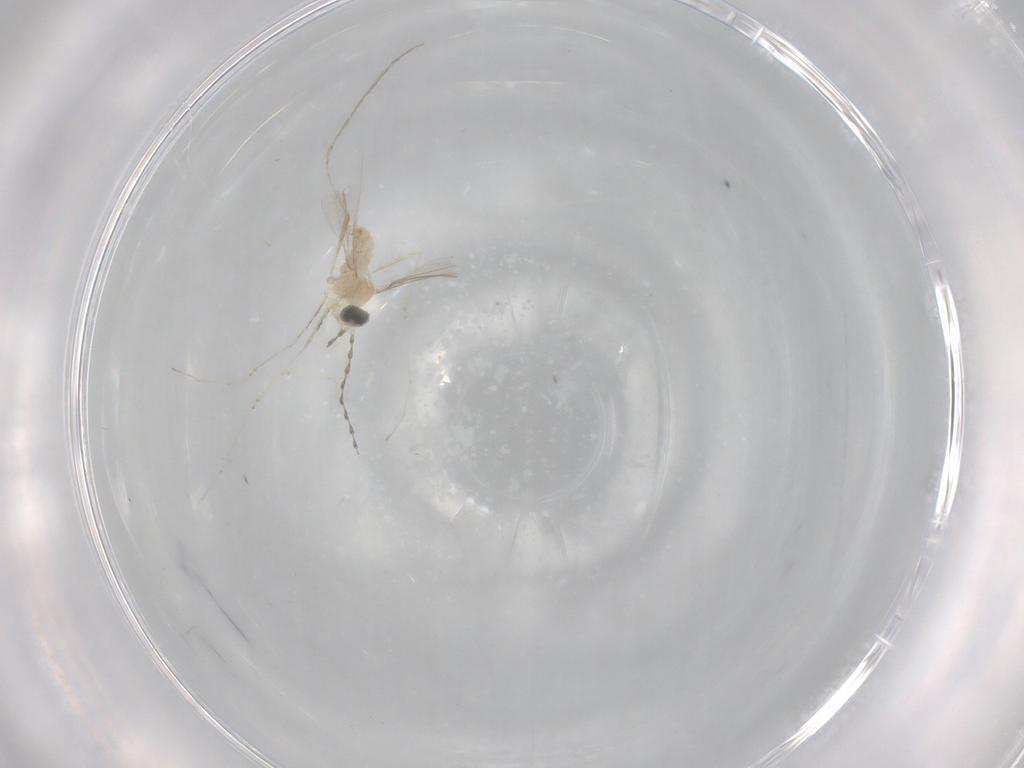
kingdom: Animalia
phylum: Arthropoda
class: Insecta
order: Diptera
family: Cecidomyiidae
